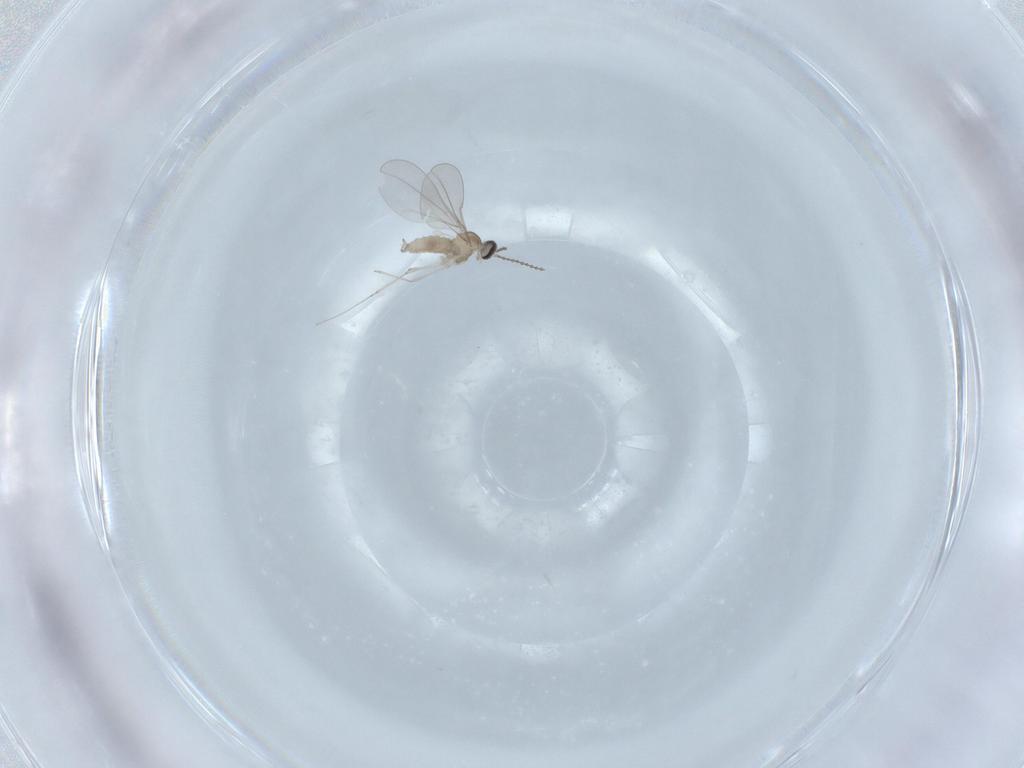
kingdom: Animalia
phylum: Arthropoda
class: Insecta
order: Diptera
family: Cecidomyiidae
